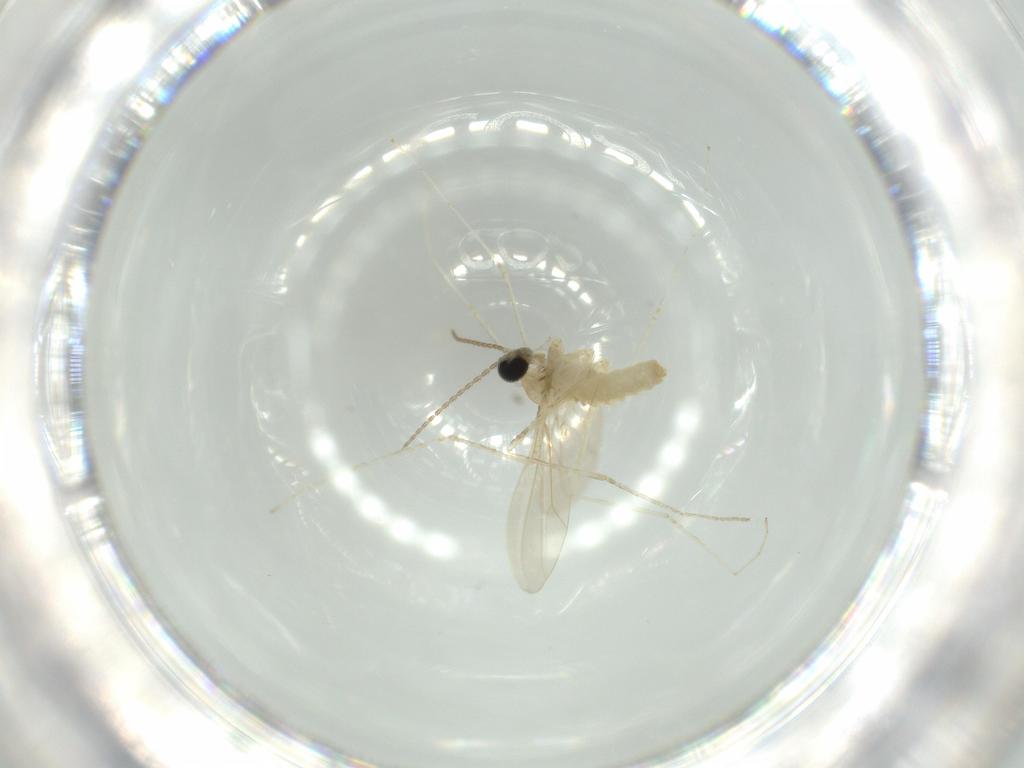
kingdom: Animalia
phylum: Arthropoda
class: Insecta
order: Diptera
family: Cecidomyiidae
